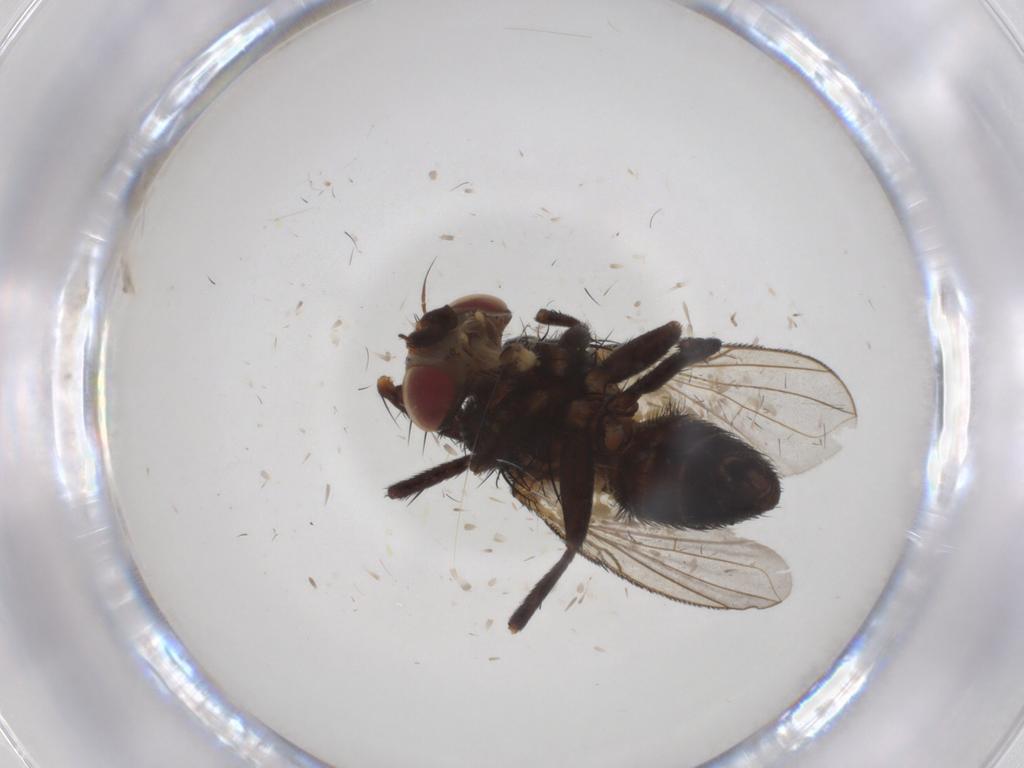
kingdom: Animalia
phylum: Arthropoda
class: Insecta
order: Diptera
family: Tachinidae
